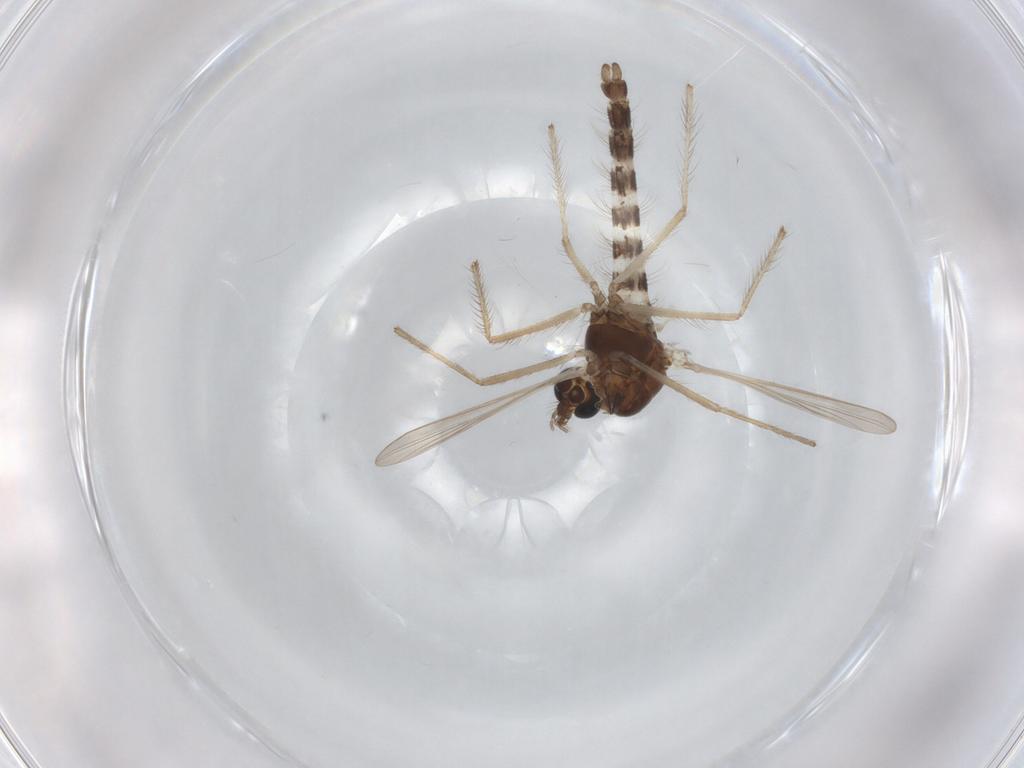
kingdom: Animalia
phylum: Arthropoda
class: Insecta
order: Diptera
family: Chironomidae
